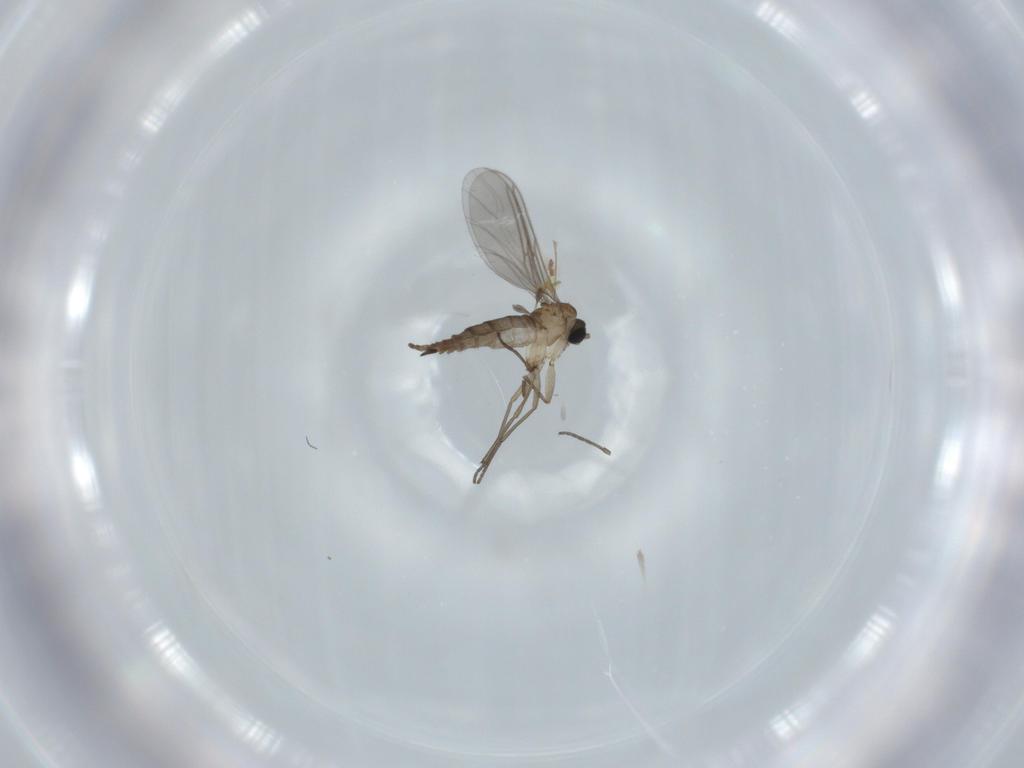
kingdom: Animalia
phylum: Arthropoda
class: Insecta
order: Diptera
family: Sciaridae
